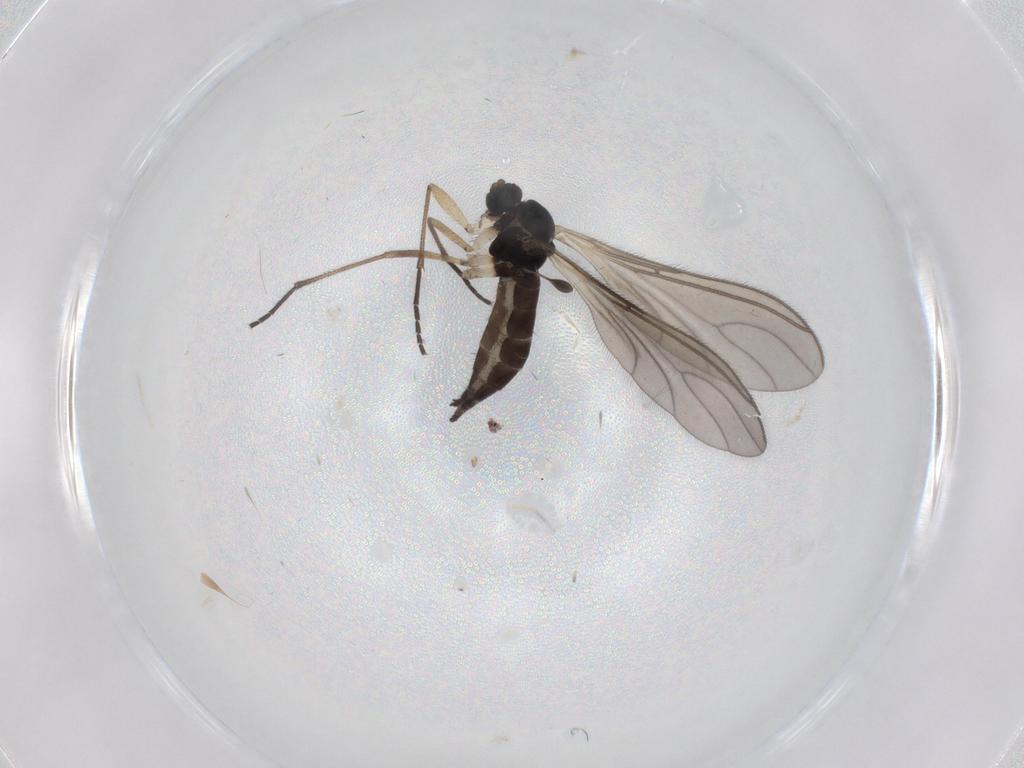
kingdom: Animalia
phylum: Arthropoda
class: Insecta
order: Diptera
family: Sciaridae
